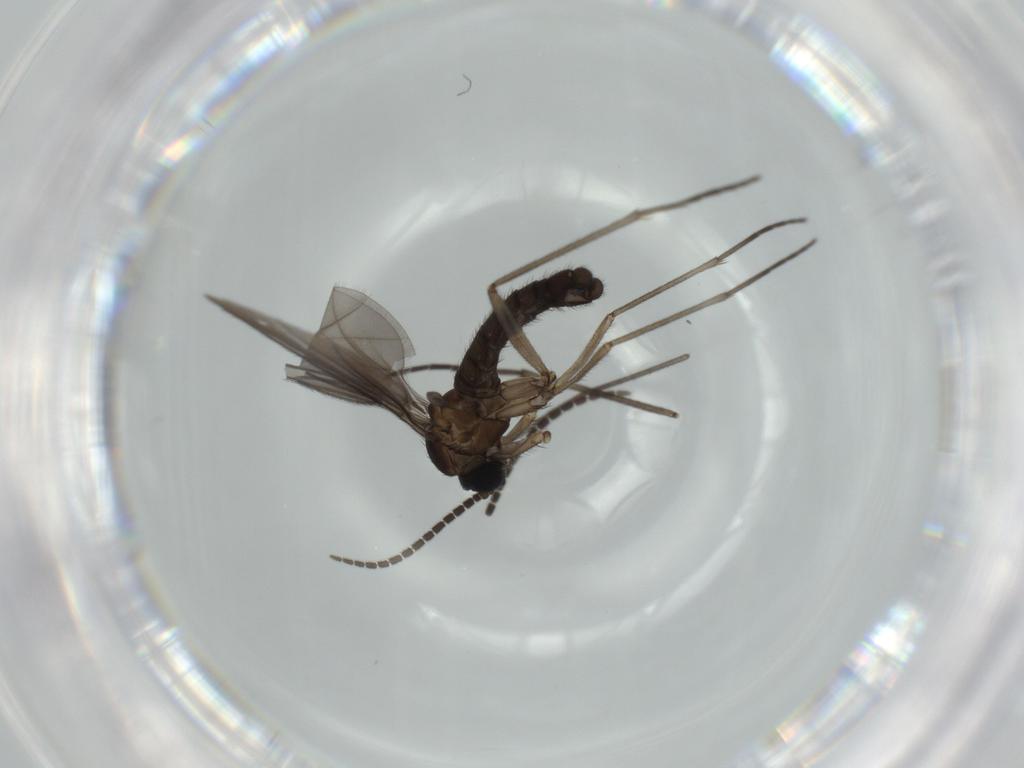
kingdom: Animalia
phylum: Arthropoda
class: Insecta
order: Diptera
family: Sciaridae
